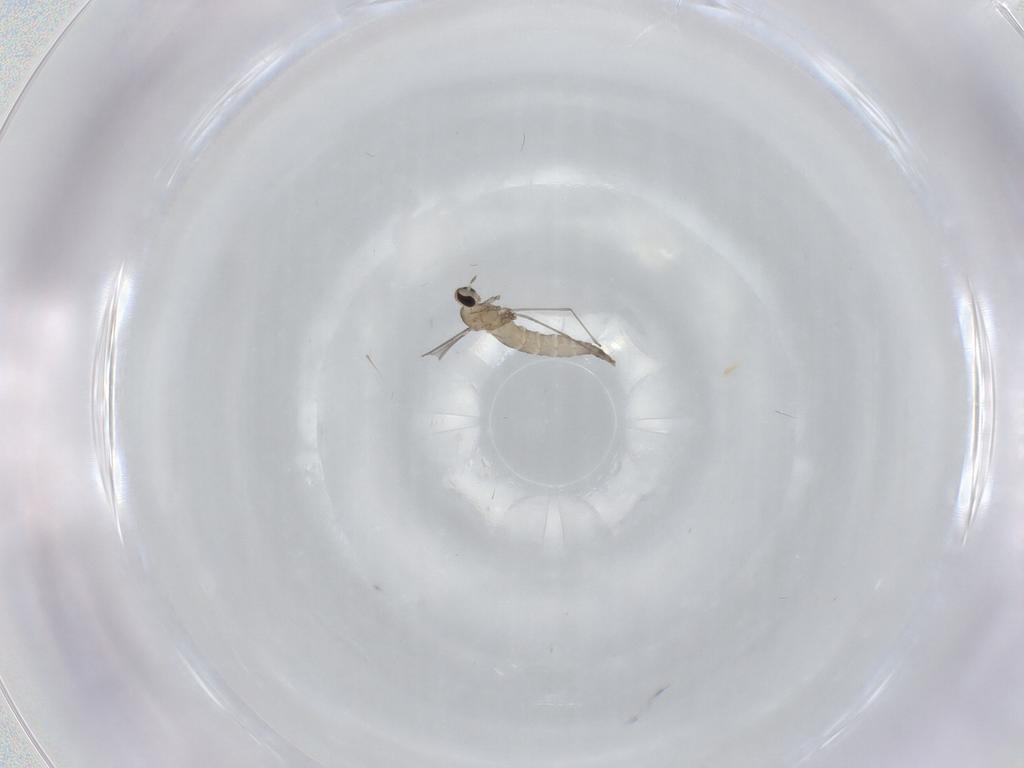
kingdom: Animalia
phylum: Arthropoda
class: Insecta
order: Diptera
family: Cecidomyiidae
